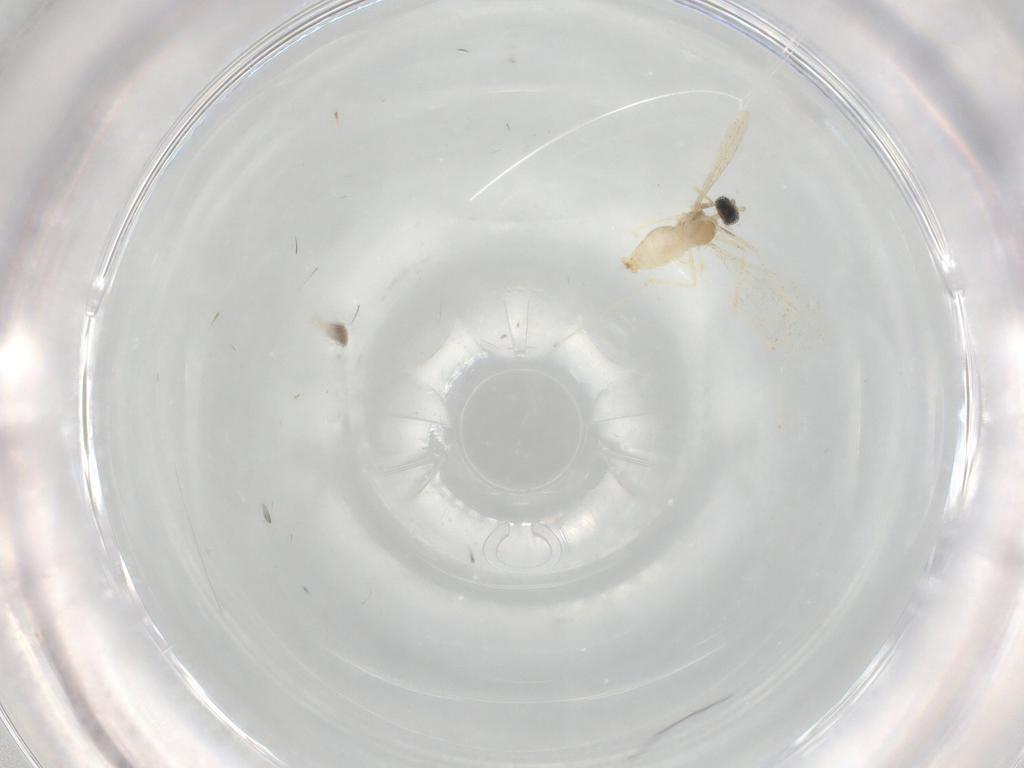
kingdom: Animalia
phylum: Arthropoda
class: Insecta
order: Diptera
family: Cecidomyiidae
